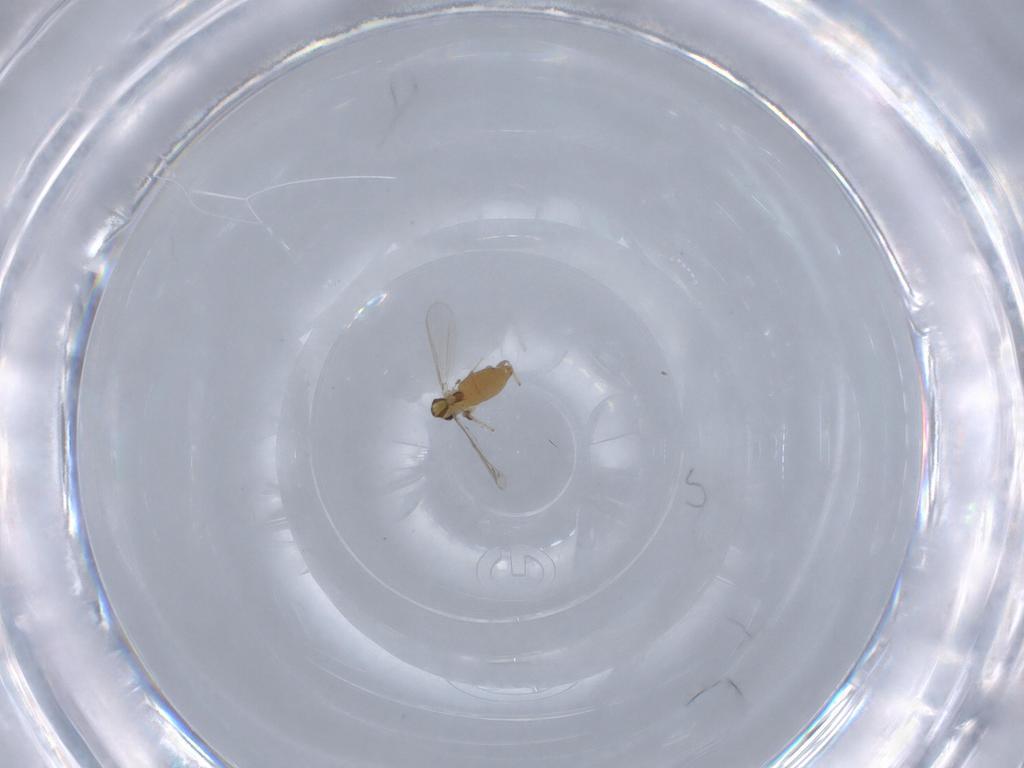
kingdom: Animalia
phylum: Arthropoda
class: Insecta
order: Diptera
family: Chironomidae
